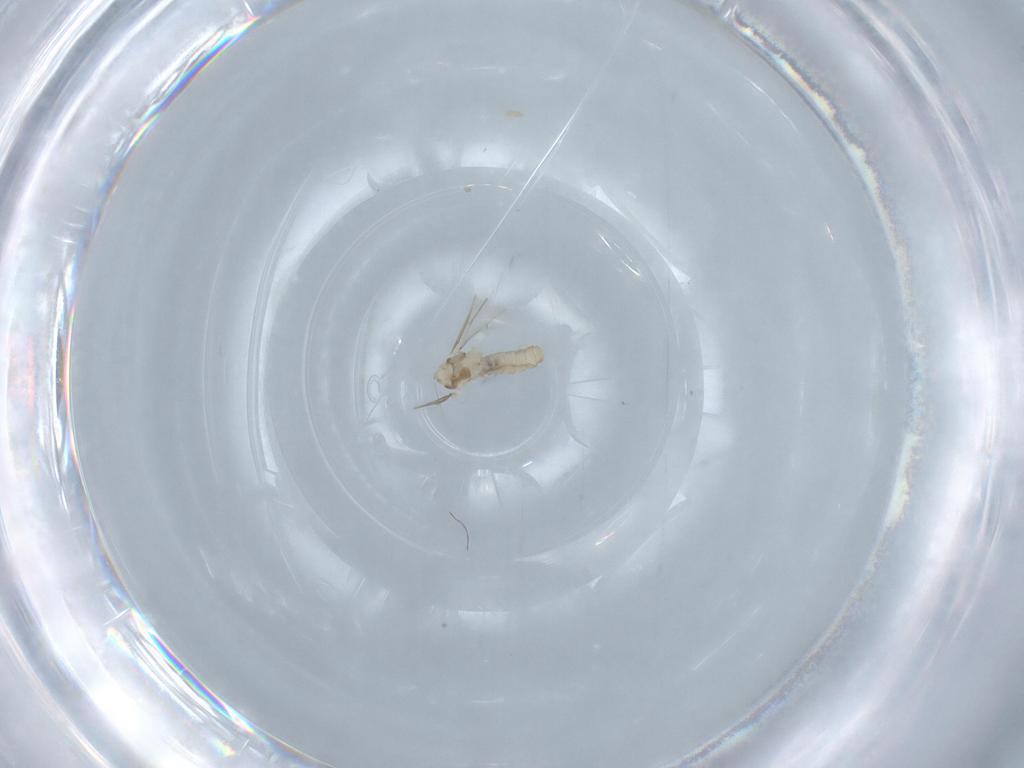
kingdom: Animalia
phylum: Arthropoda
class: Insecta
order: Diptera
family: Cecidomyiidae
